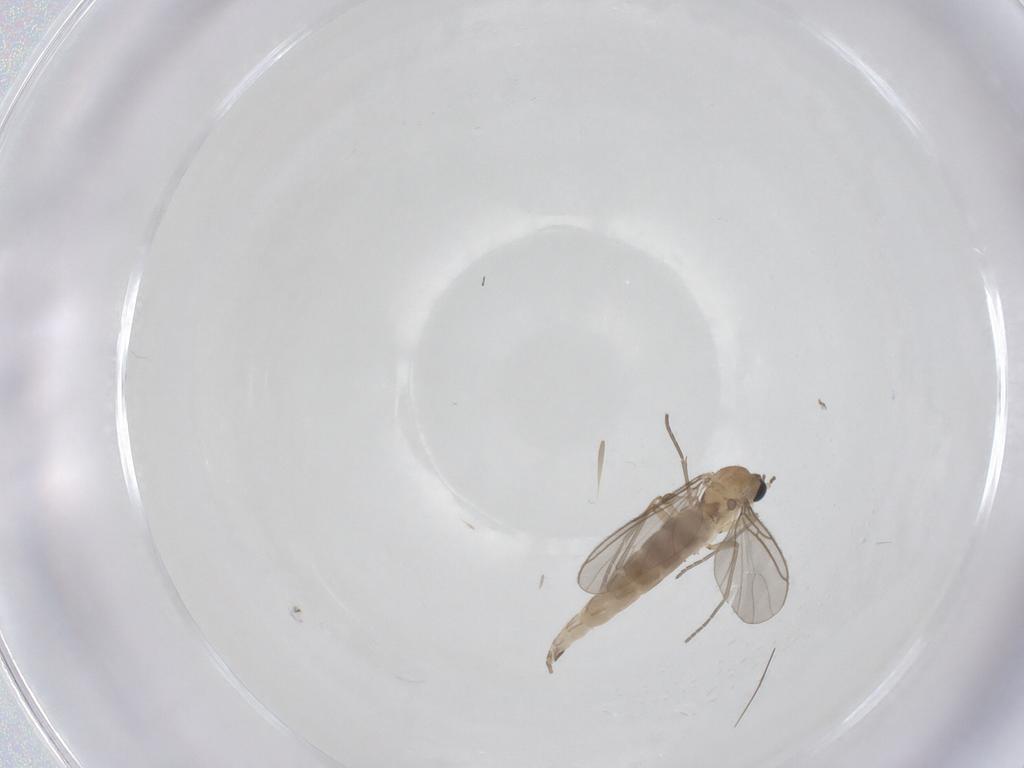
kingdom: Animalia
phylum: Arthropoda
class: Insecta
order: Diptera
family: Sciaridae
